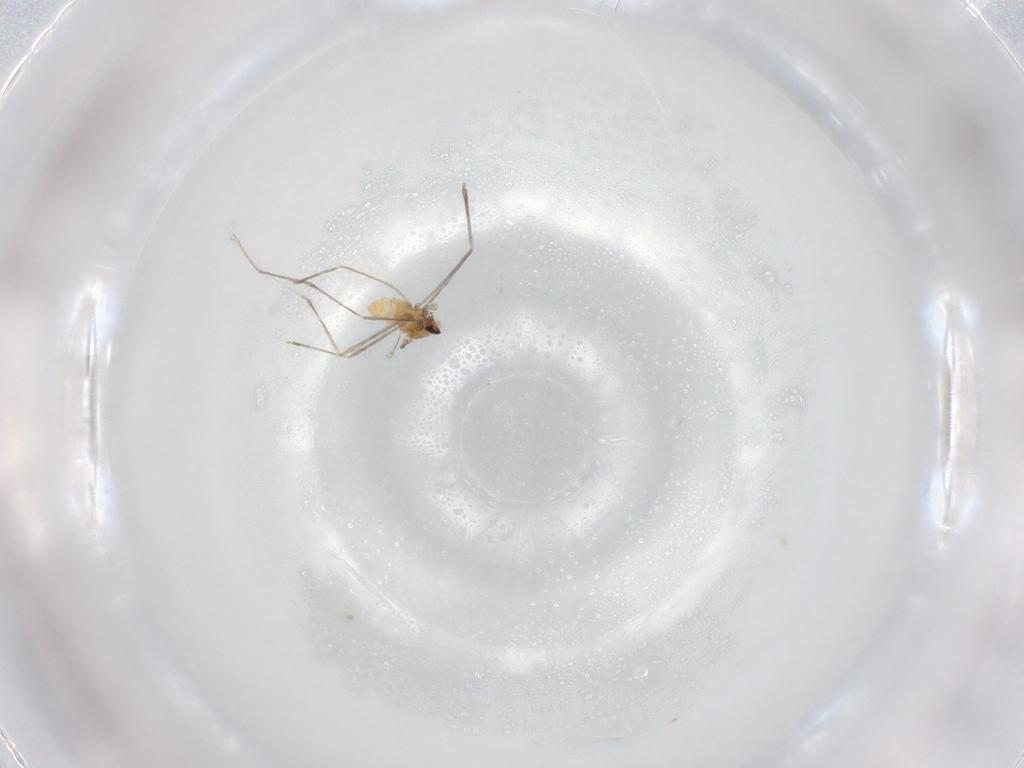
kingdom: Animalia
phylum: Arthropoda
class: Insecta
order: Diptera
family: Cecidomyiidae
